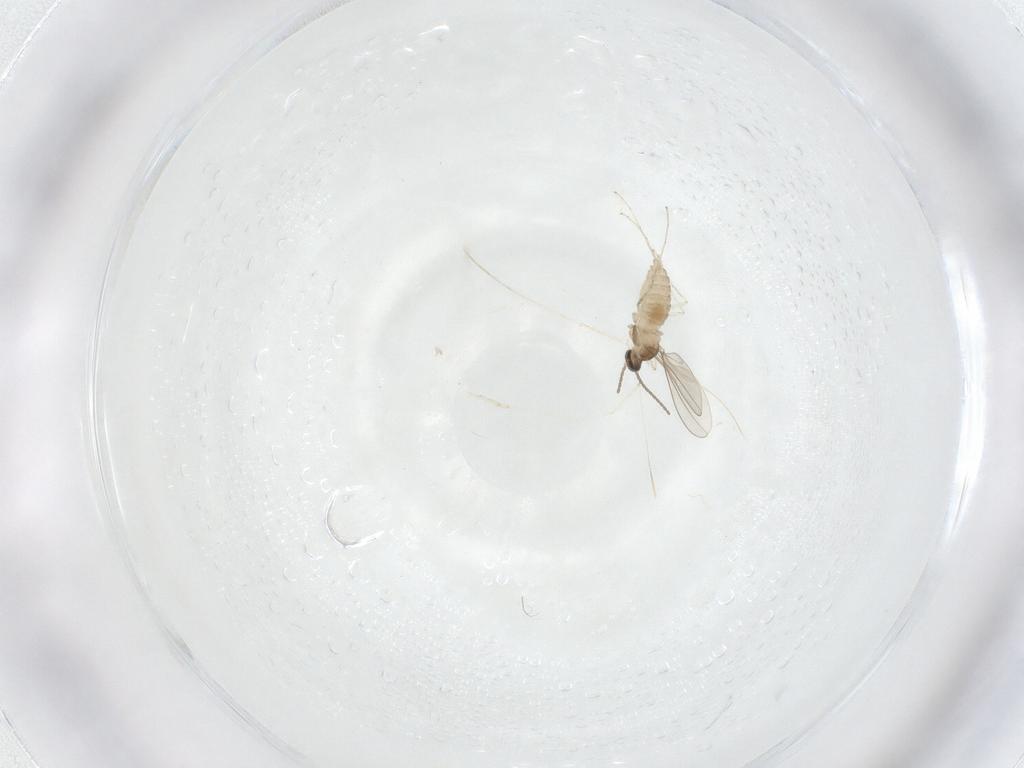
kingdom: Animalia
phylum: Arthropoda
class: Insecta
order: Diptera
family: Cecidomyiidae
